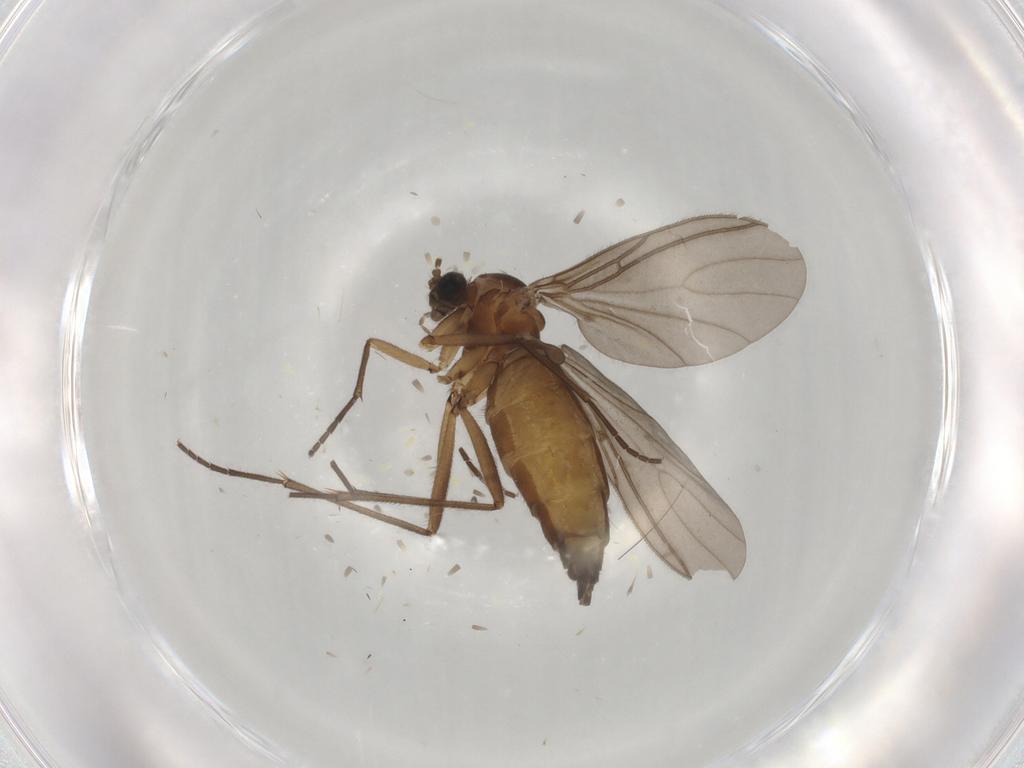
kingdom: Animalia
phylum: Arthropoda
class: Insecta
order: Diptera
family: Sciaridae
